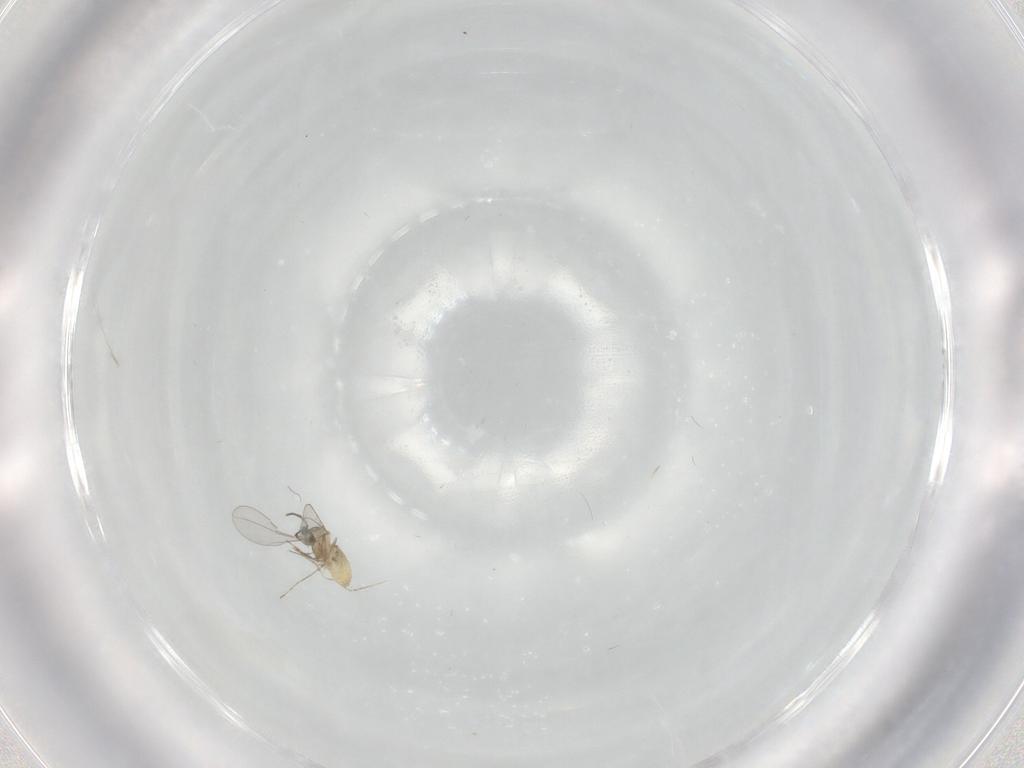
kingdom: Animalia
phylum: Arthropoda
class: Insecta
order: Diptera
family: Cecidomyiidae
